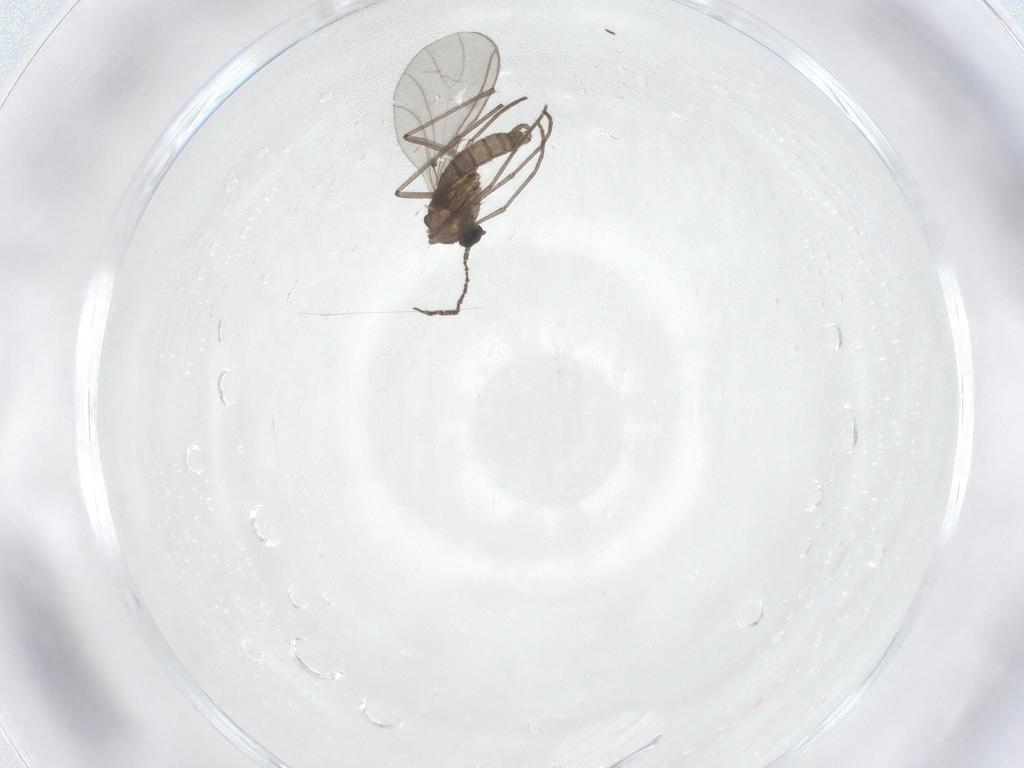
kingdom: Animalia
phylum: Arthropoda
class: Insecta
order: Diptera
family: Sciaridae
